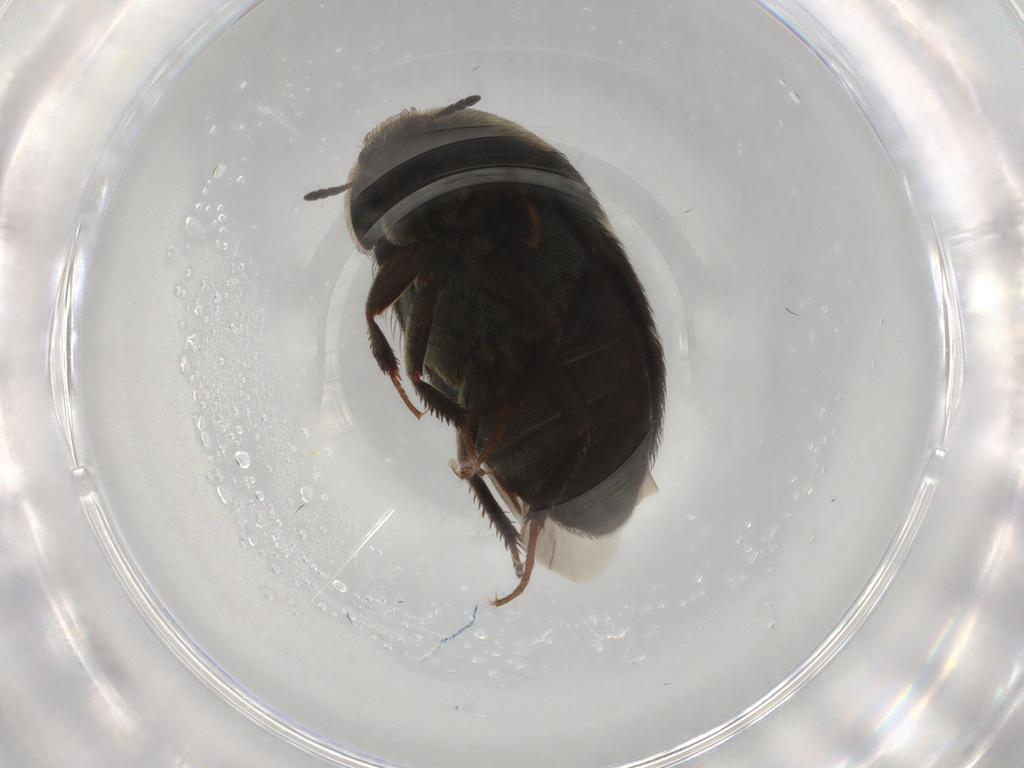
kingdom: Animalia
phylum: Arthropoda
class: Insecta
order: Coleoptera
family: Dermestidae
